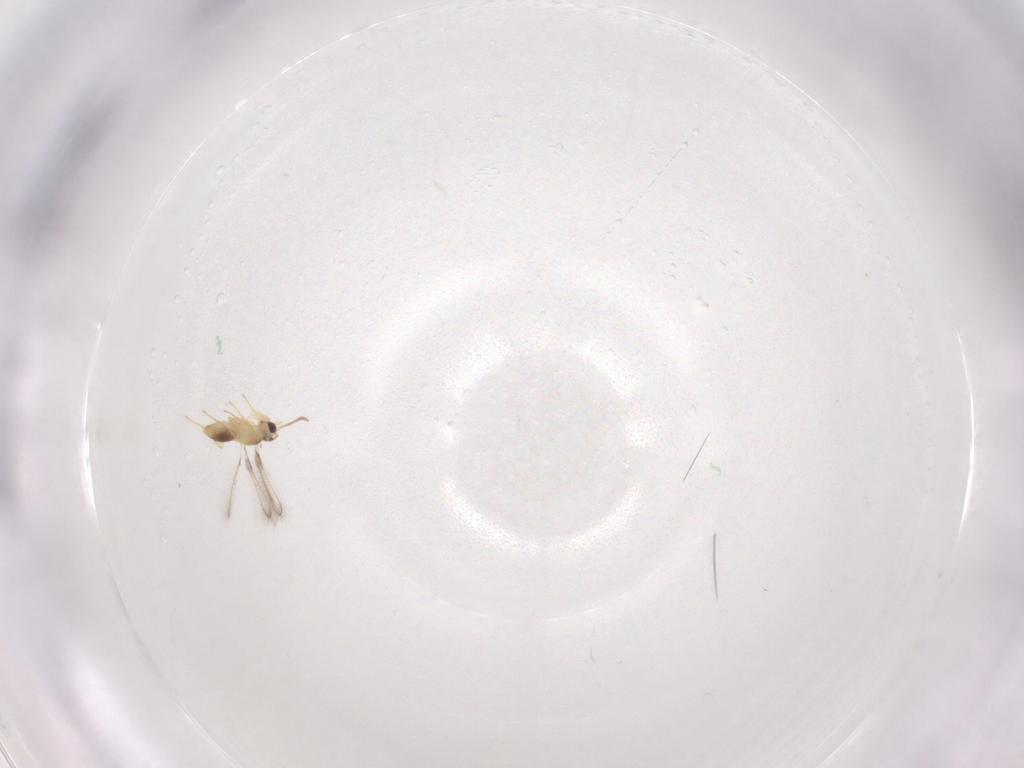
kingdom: Animalia
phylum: Arthropoda
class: Insecta
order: Hymenoptera
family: Mymaridae
